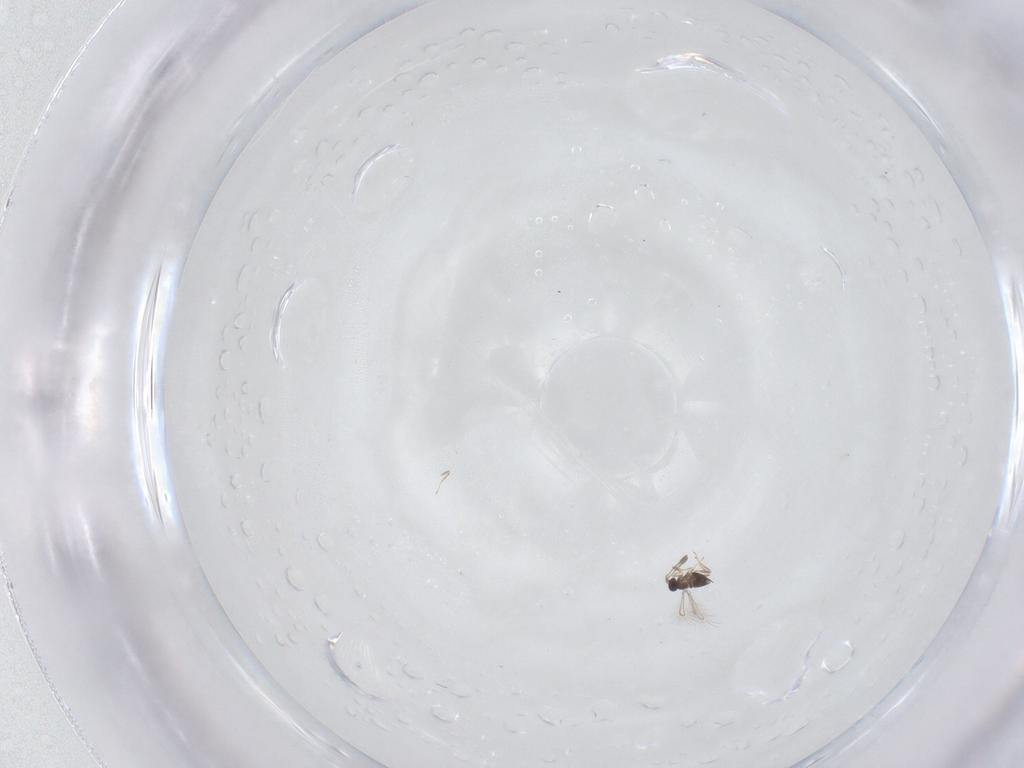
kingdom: Animalia
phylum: Arthropoda
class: Insecta
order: Hymenoptera
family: Mymaridae
